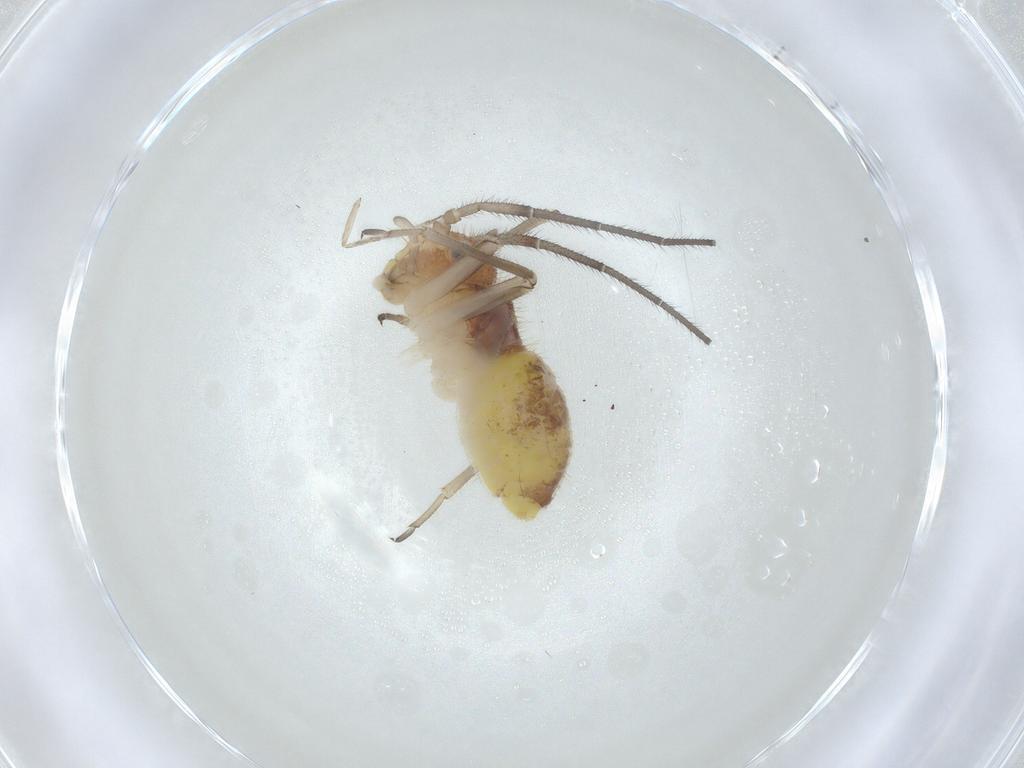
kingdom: Animalia
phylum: Arthropoda
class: Insecta
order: Psocodea
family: Psocidae
